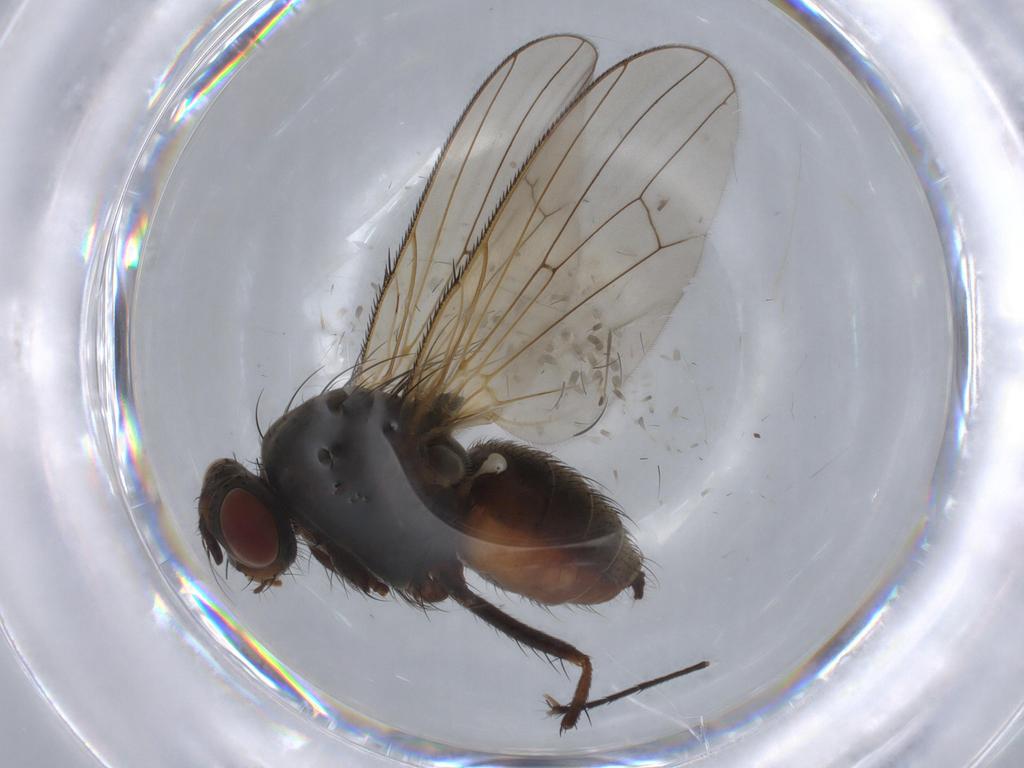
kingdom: Animalia
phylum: Arthropoda
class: Insecta
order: Diptera
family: Anthomyiidae
